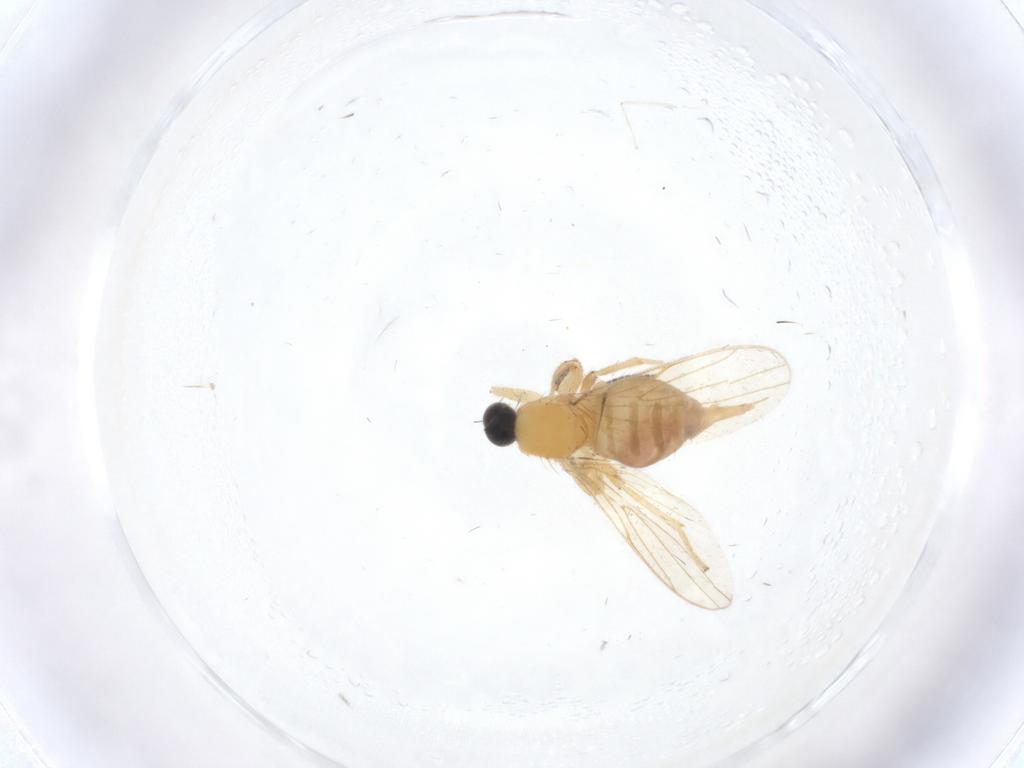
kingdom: Animalia
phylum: Arthropoda
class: Insecta
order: Diptera
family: Sciaridae
